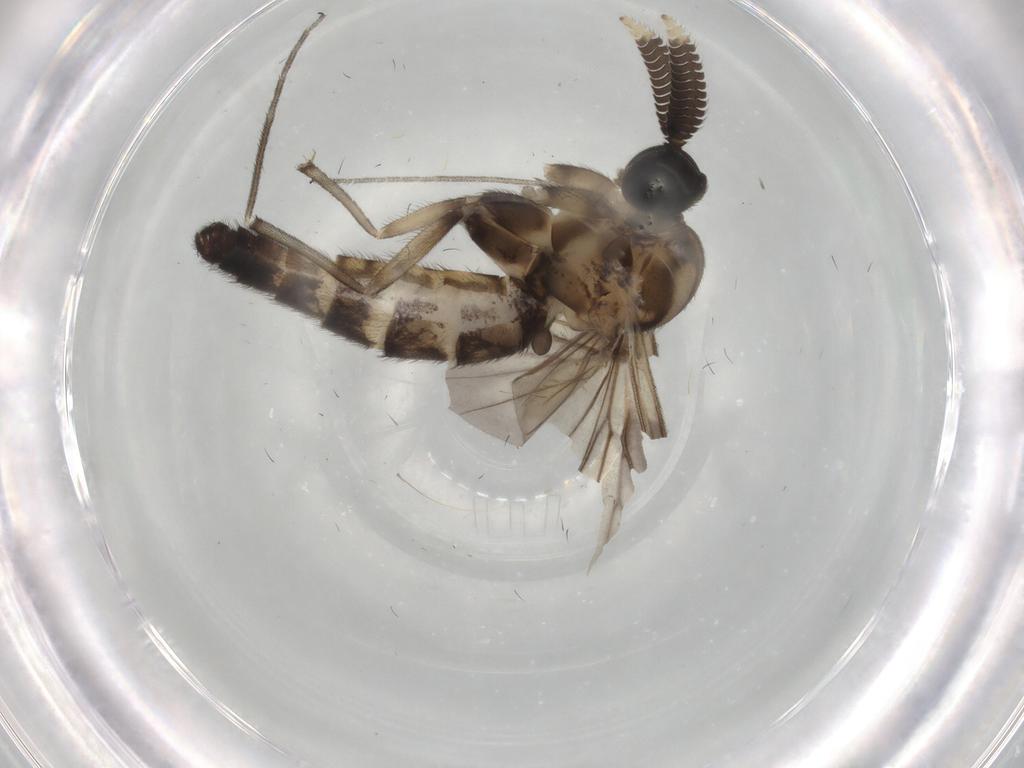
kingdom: Animalia
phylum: Arthropoda
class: Insecta
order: Diptera
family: Tabanidae
